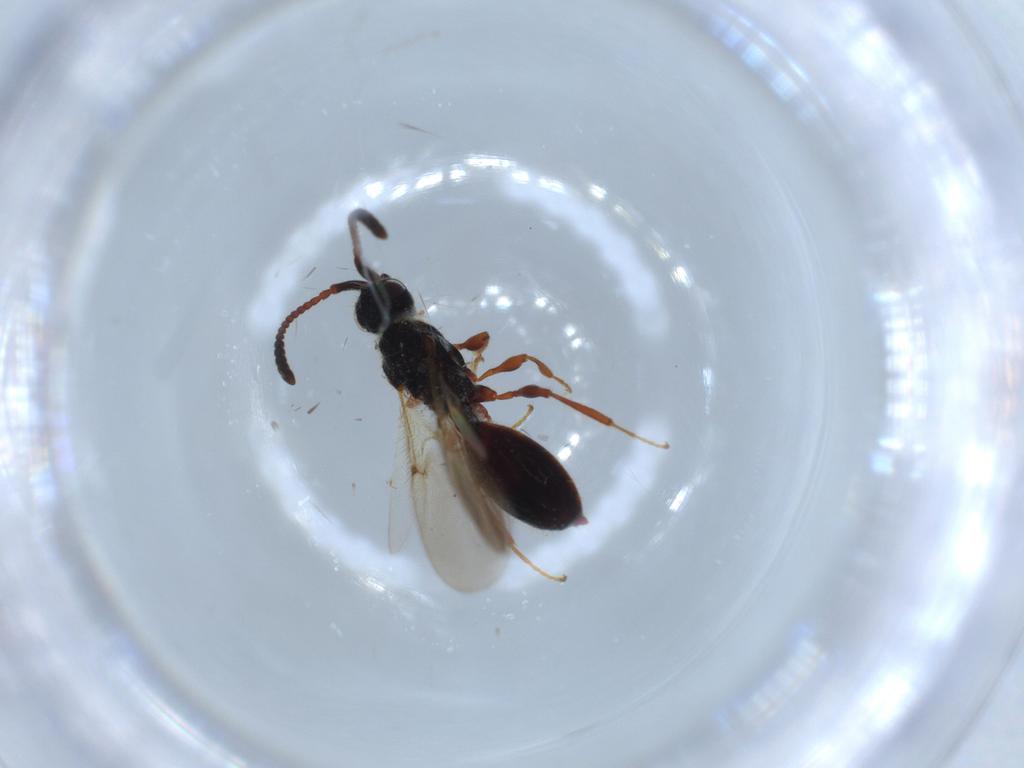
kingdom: Animalia
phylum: Arthropoda
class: Insecta
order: Hymenoptera
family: Diapriidae
